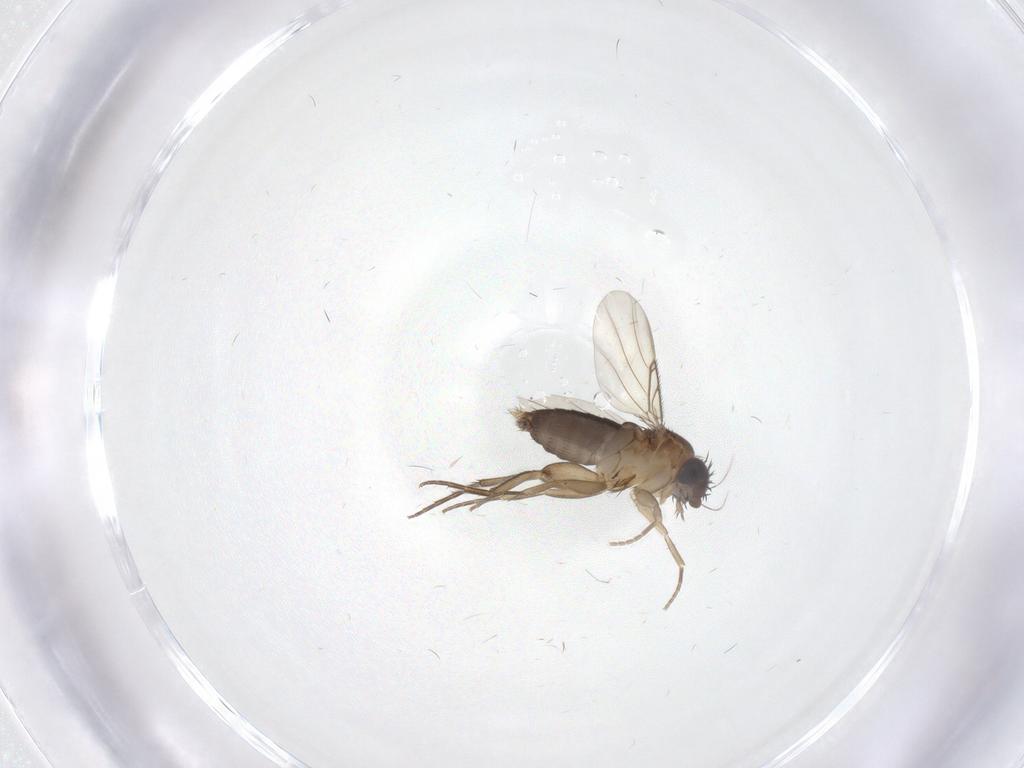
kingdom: Animalia
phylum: Arthropoda
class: Insecta
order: Diptera
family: Phoridae
